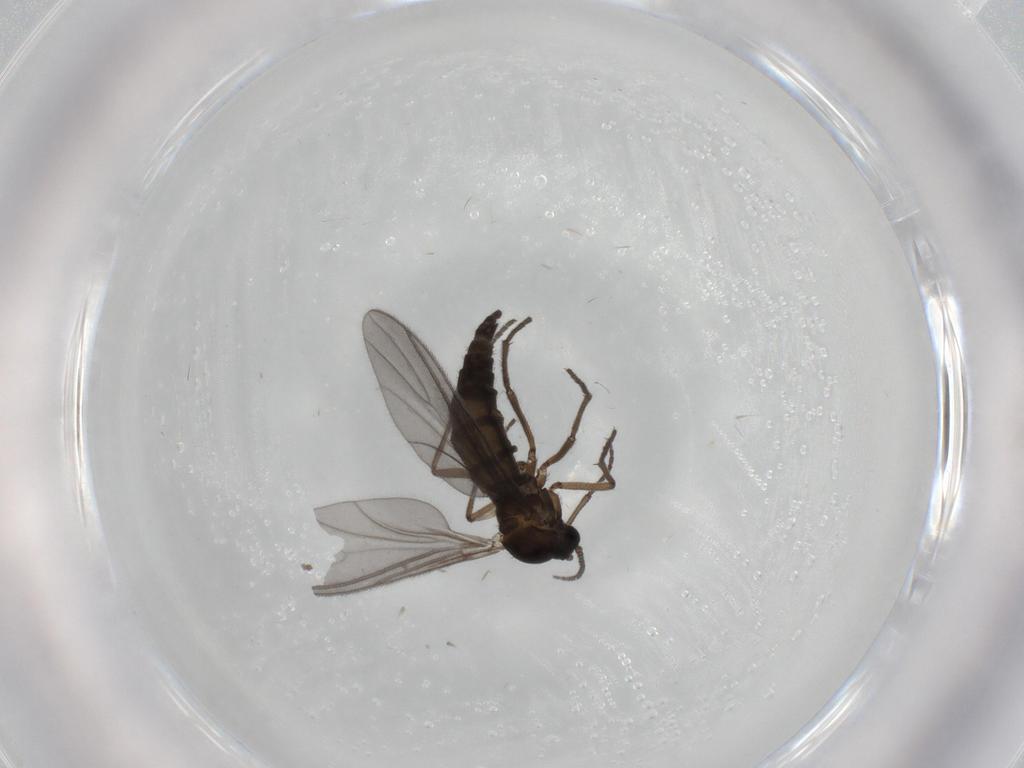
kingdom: Animalia
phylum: Arthropoda
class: Insecta
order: Diptera
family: Sciaridae
